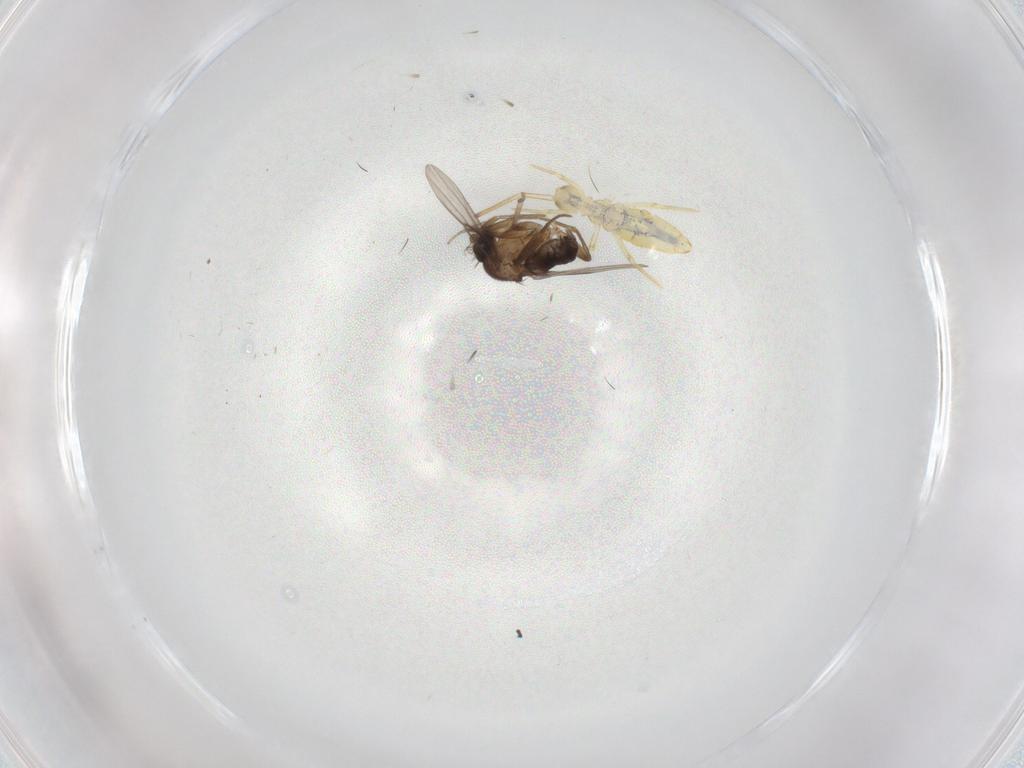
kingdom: Animalia
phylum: Arthropoda
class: Insecta
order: Diptera
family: Phoridae
